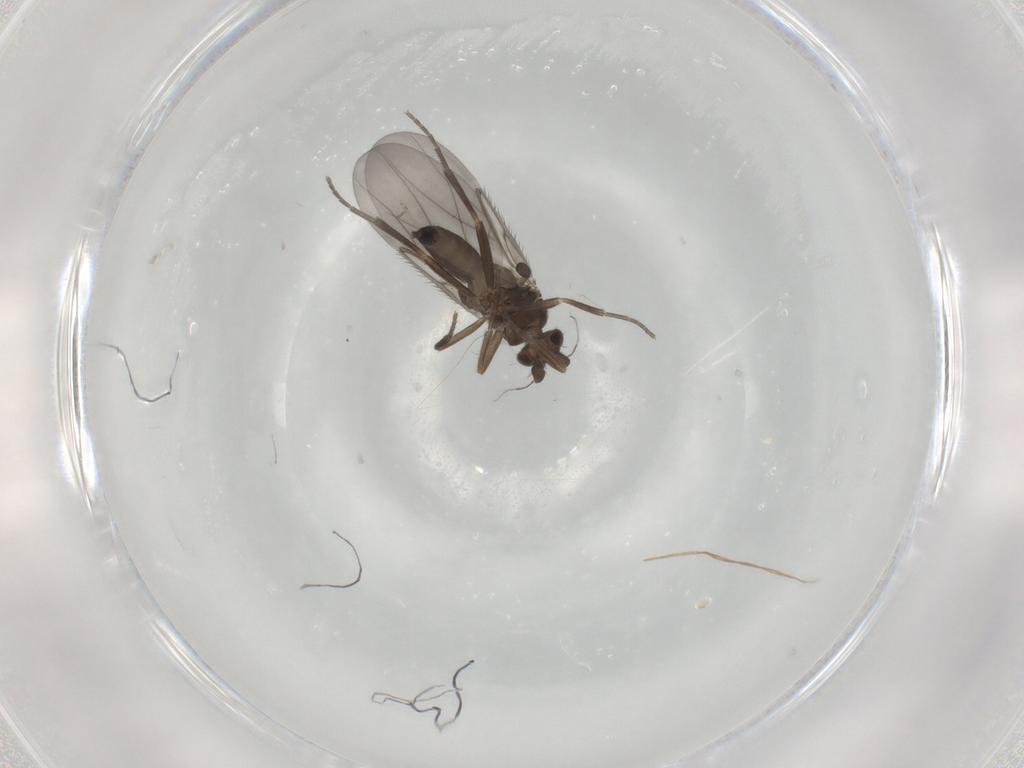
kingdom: Animalia
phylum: Arthropoda
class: Insecta
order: Diptera
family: Phoridae
